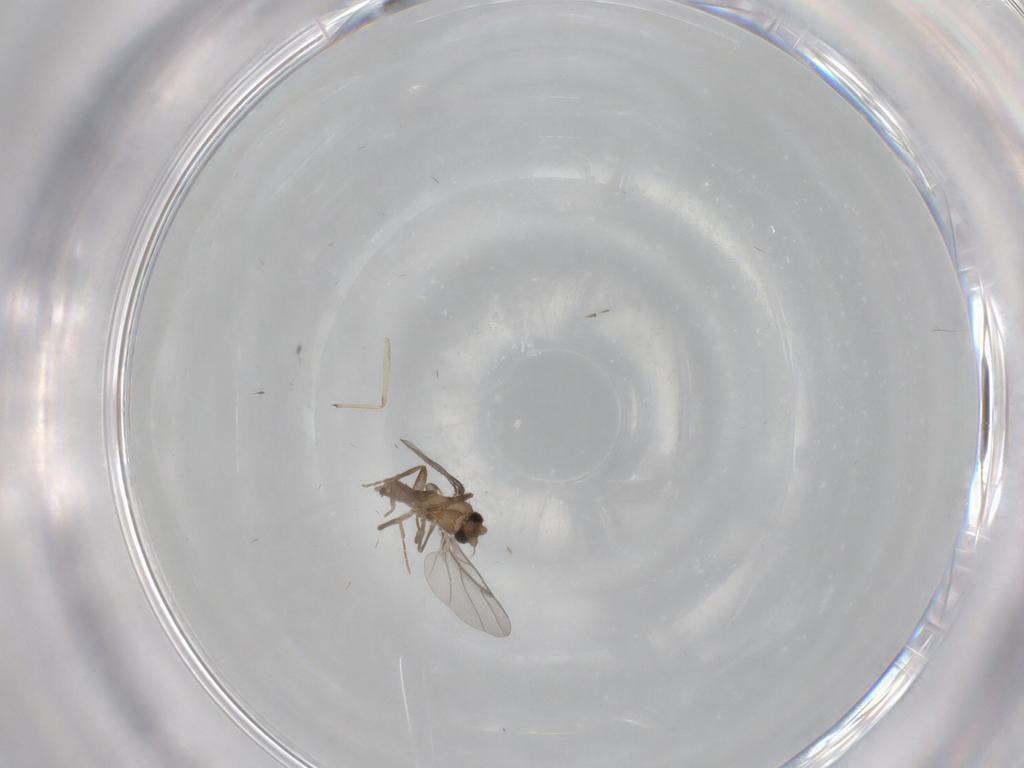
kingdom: Animalia
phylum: Arthropoda
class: Insecta
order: Diptera
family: Chironomidae
